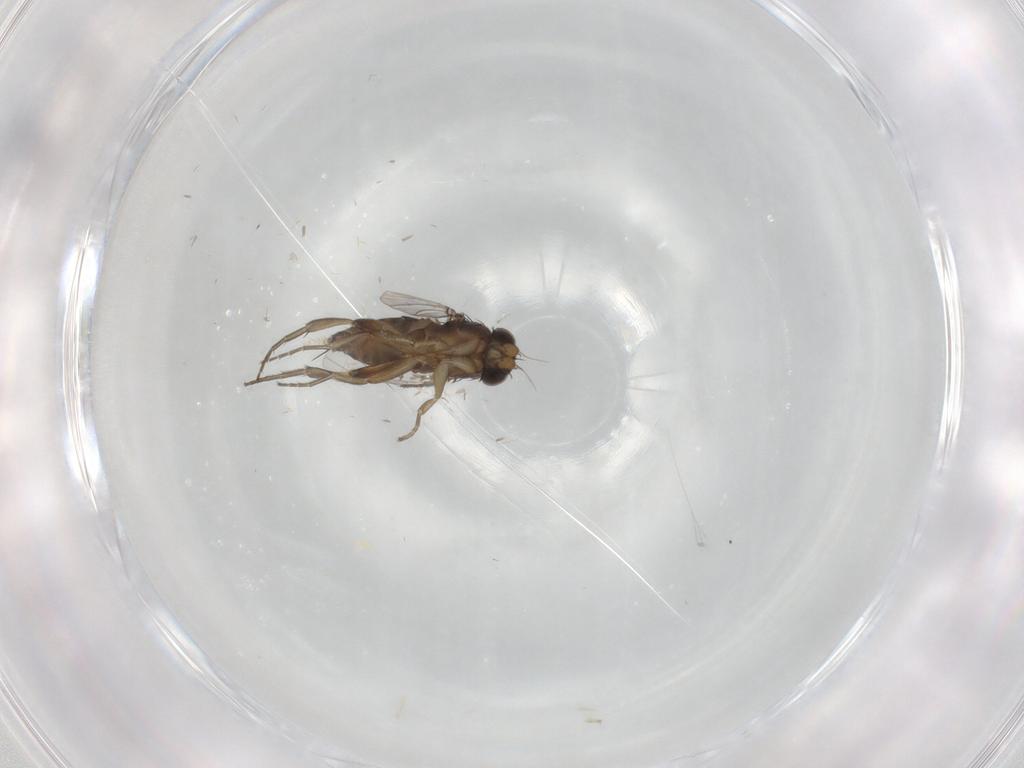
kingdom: Animalia
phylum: Arthropoda
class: Insecta
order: Diptera
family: Phoridae
